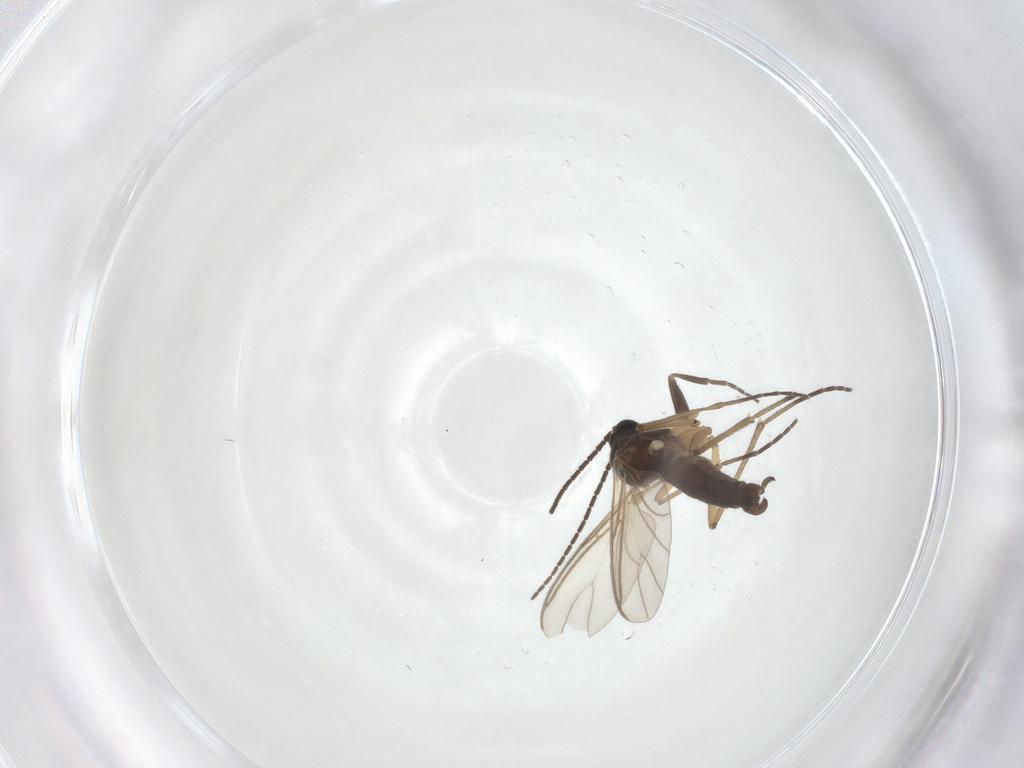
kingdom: Animalia
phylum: Arthropoda
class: Insecta
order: Diptera
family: Sciaridae
